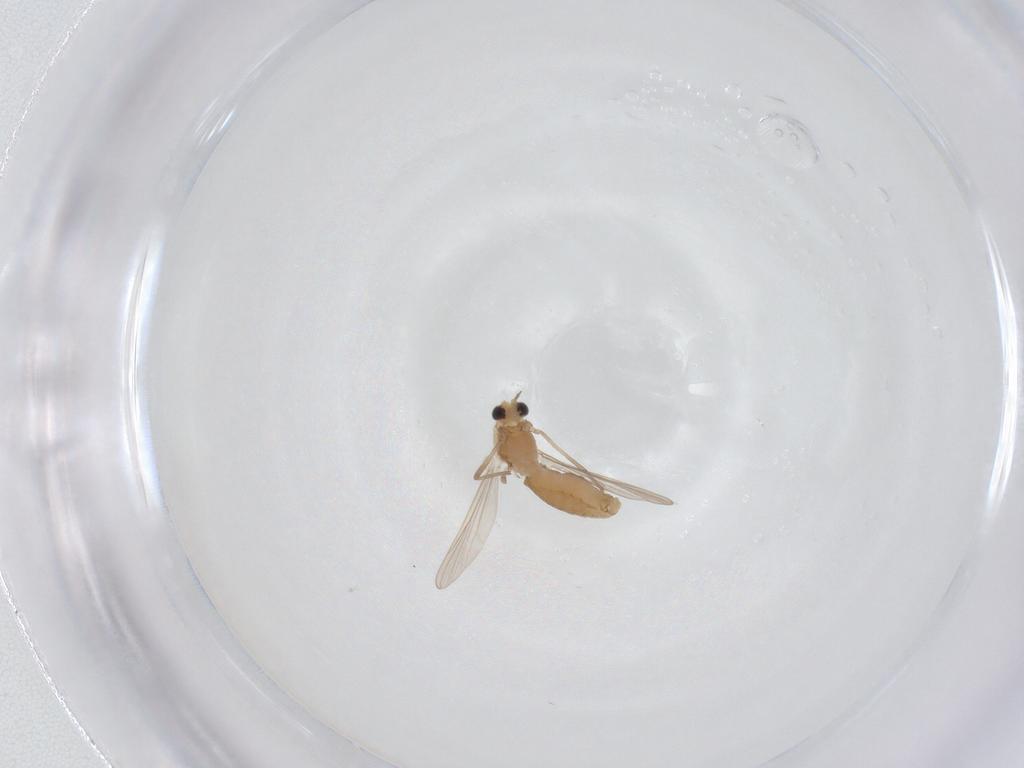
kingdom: Animalia
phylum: Arthropoda
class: Insecta
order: Diptera
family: Chironomidae
